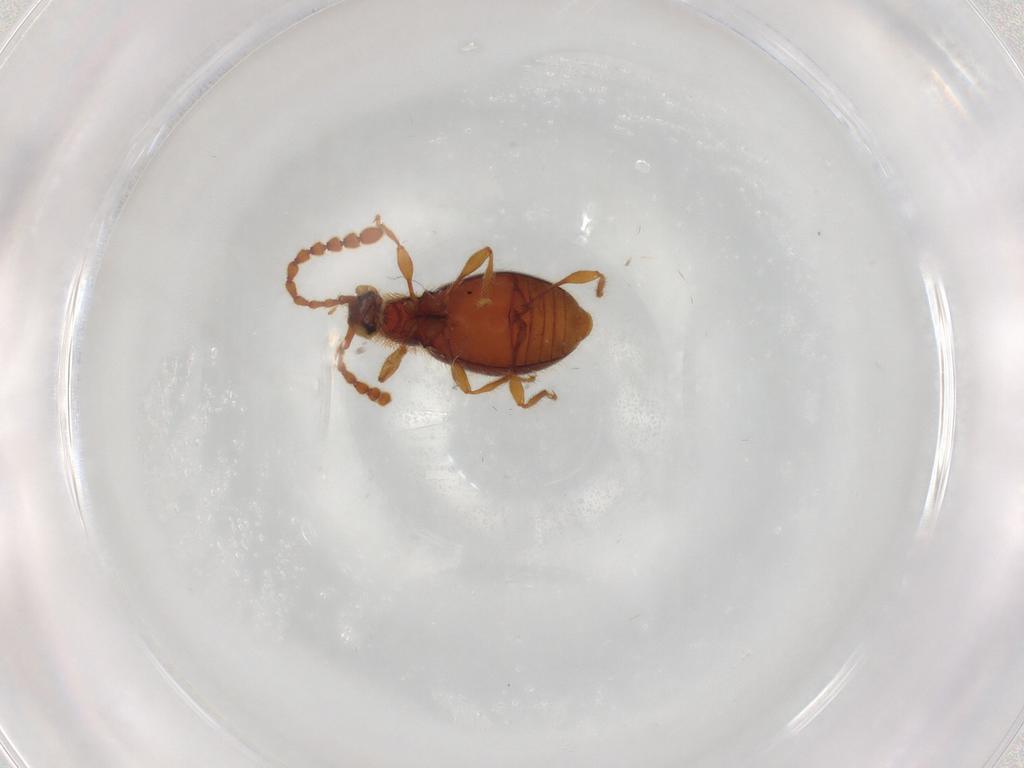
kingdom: Animalia
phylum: Arthropoda
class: Insecta
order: Coleoptera
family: Staphylinidae
